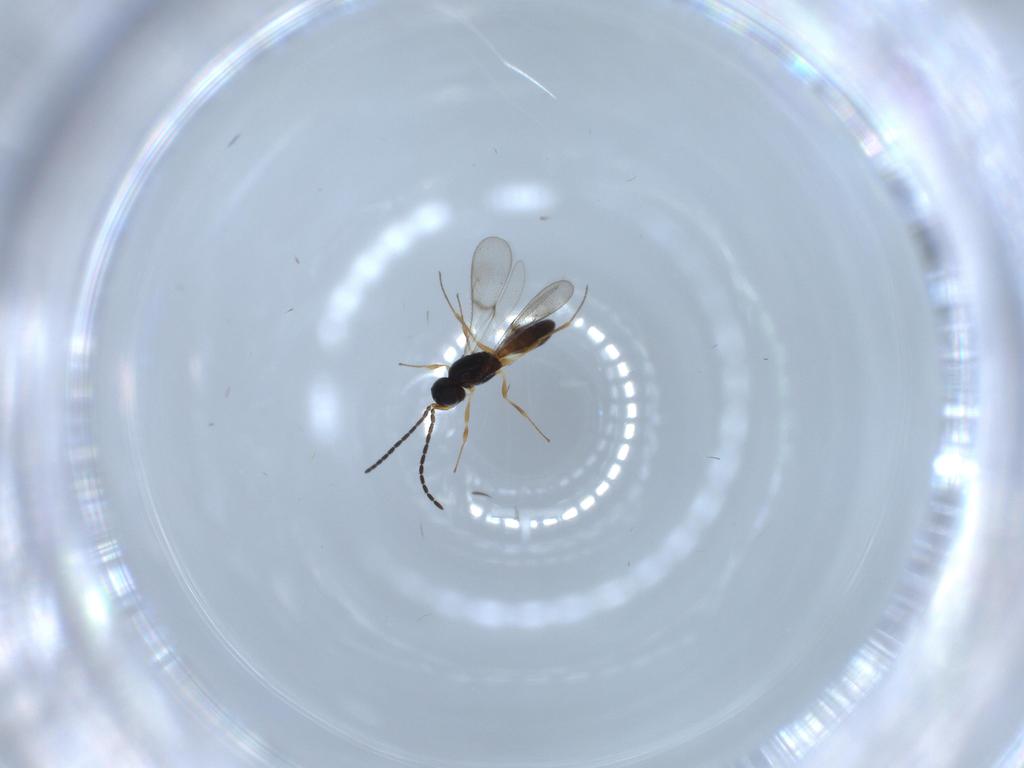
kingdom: Animalia
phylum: Arthropoda
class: Insecta
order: Hymenoptera
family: Scelionidae
